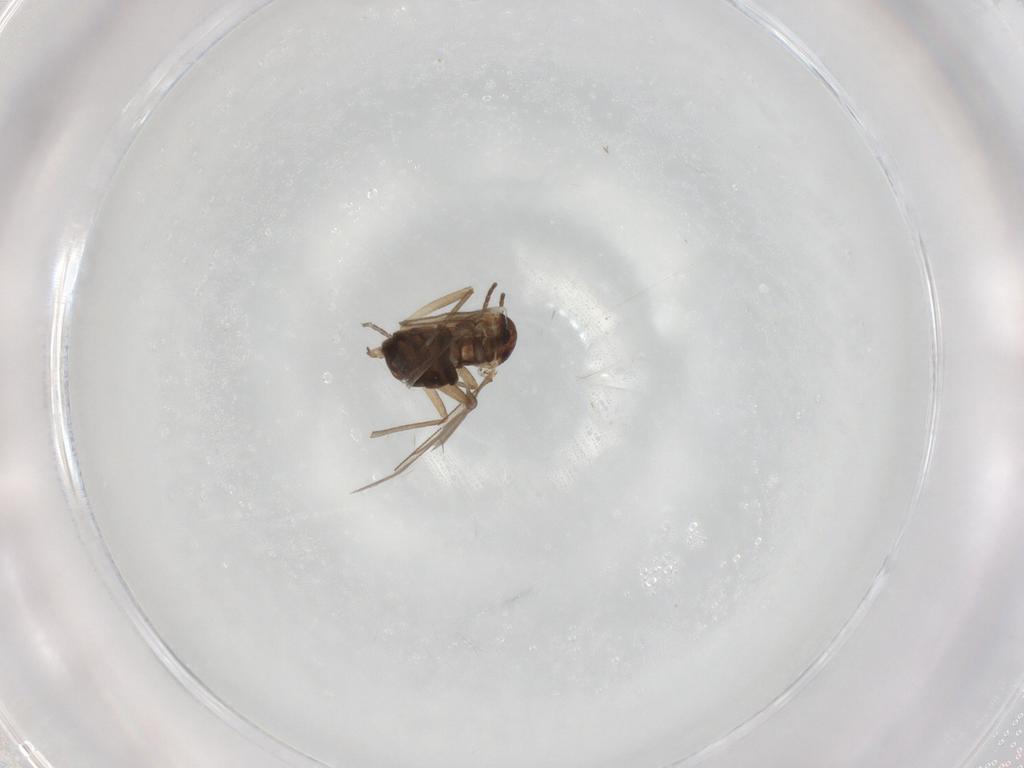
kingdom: Animalia
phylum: Arthropoda
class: Insecta
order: Diptera
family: Sciaridae
